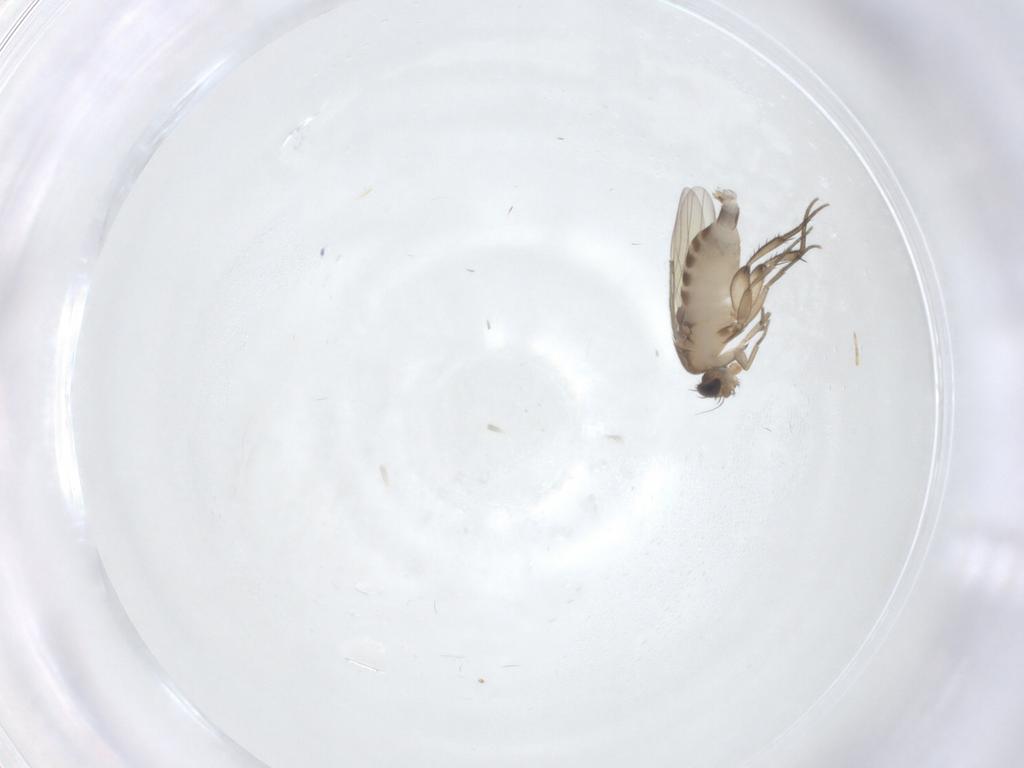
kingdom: Animalia
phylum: Arthropoda
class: Insecta
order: Diptera
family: Phoridae
